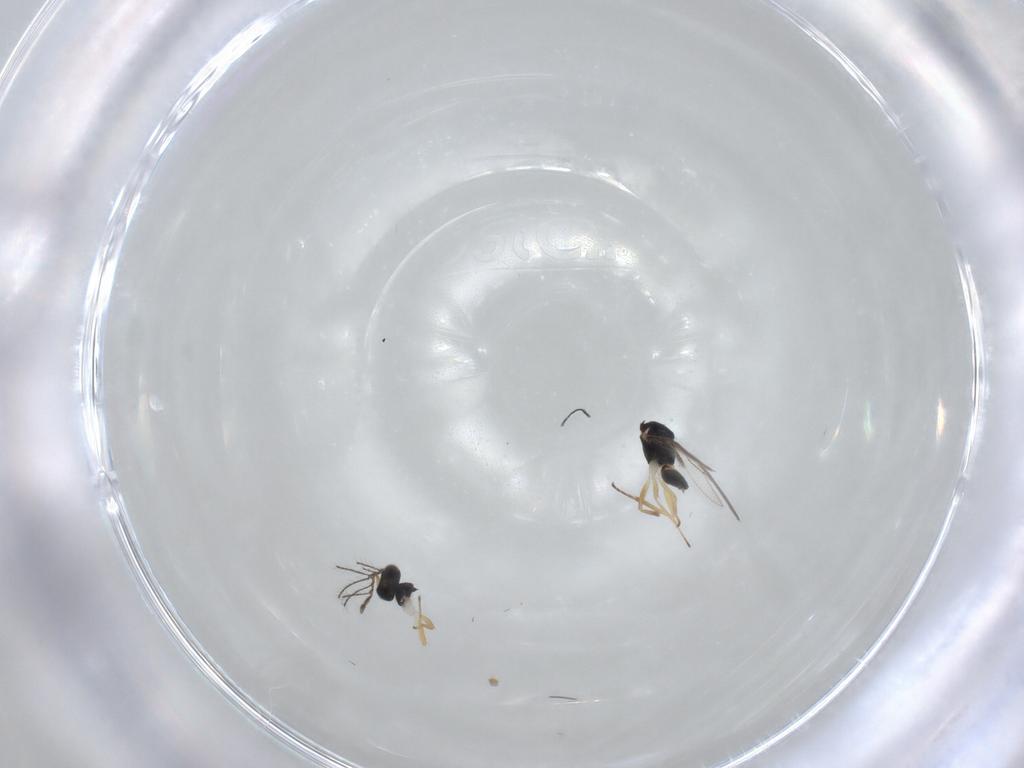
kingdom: Animalia
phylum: Arthropoda
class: Insecta
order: Hymenoptera
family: Eulophidae
